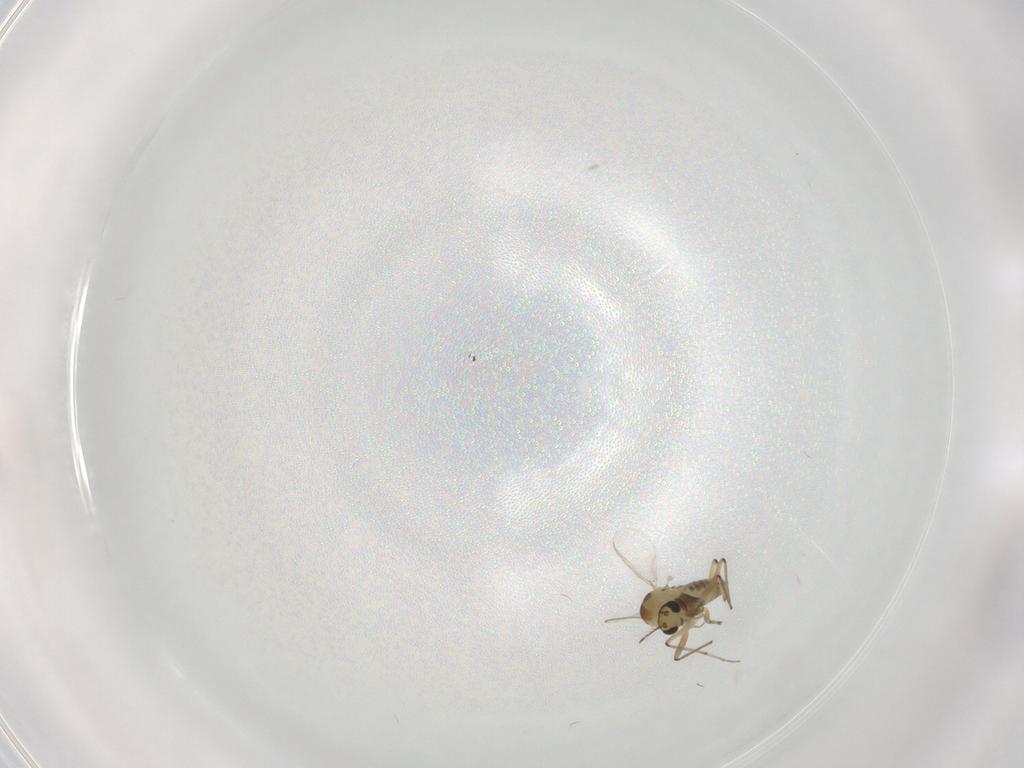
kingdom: Animalia
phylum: Arthropoda
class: Insecta
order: Diptera
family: Chironomidae
